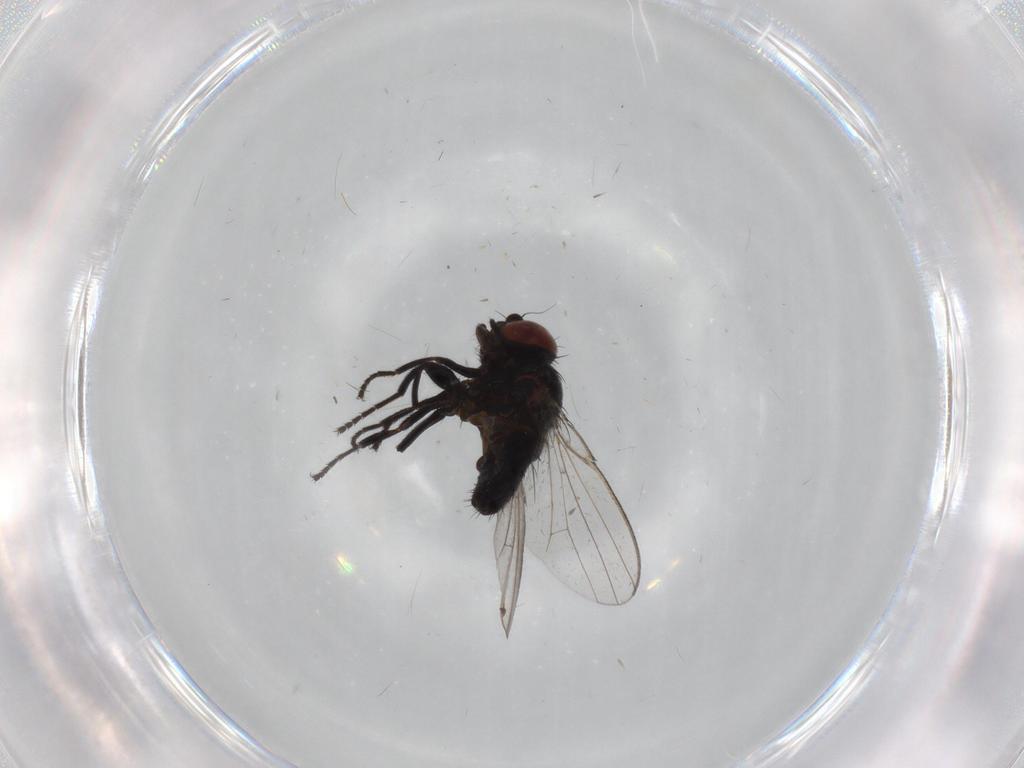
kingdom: Animalia
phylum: Arthropoda
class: Insecta
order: Diptera
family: Milichiidae
